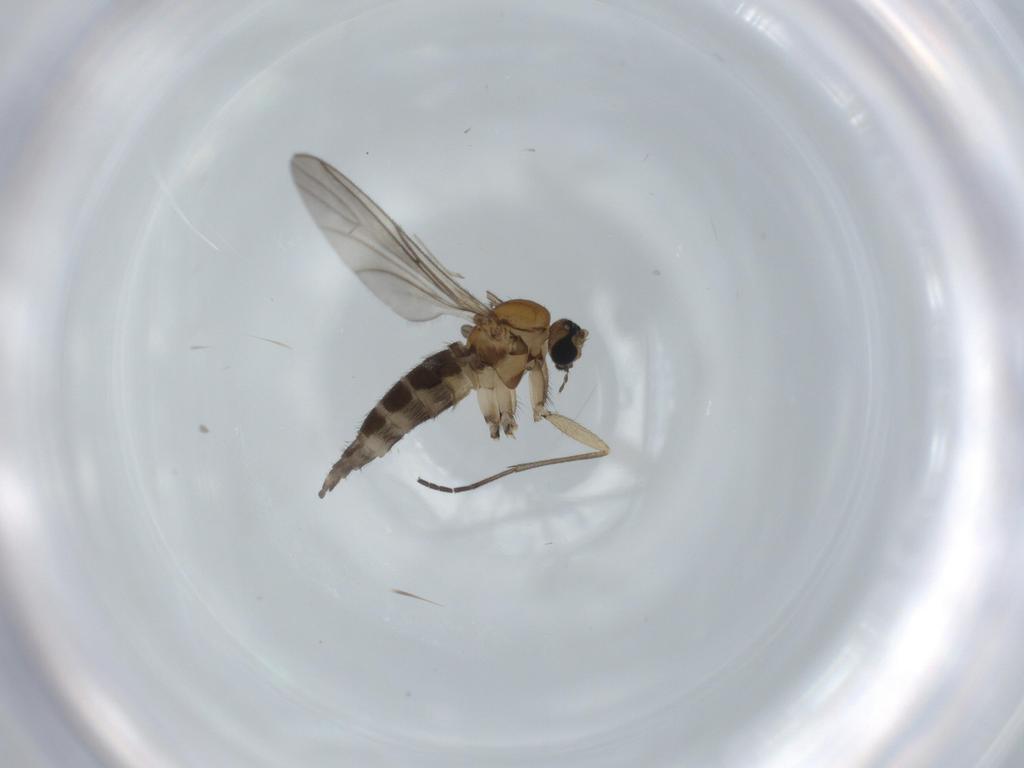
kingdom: Animalia
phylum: Arthropoda
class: Insecta
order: Diptera
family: Sciaridae
